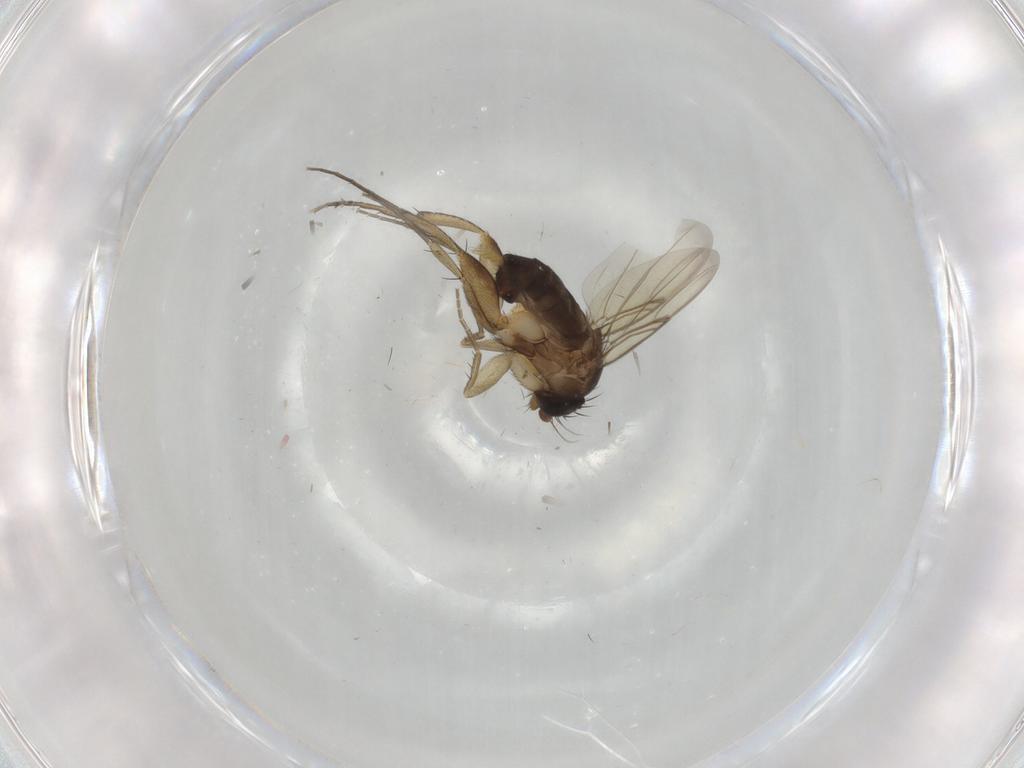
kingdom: Animalia
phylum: Arthropoda
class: Insecta
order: Diptera
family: Phoridae
